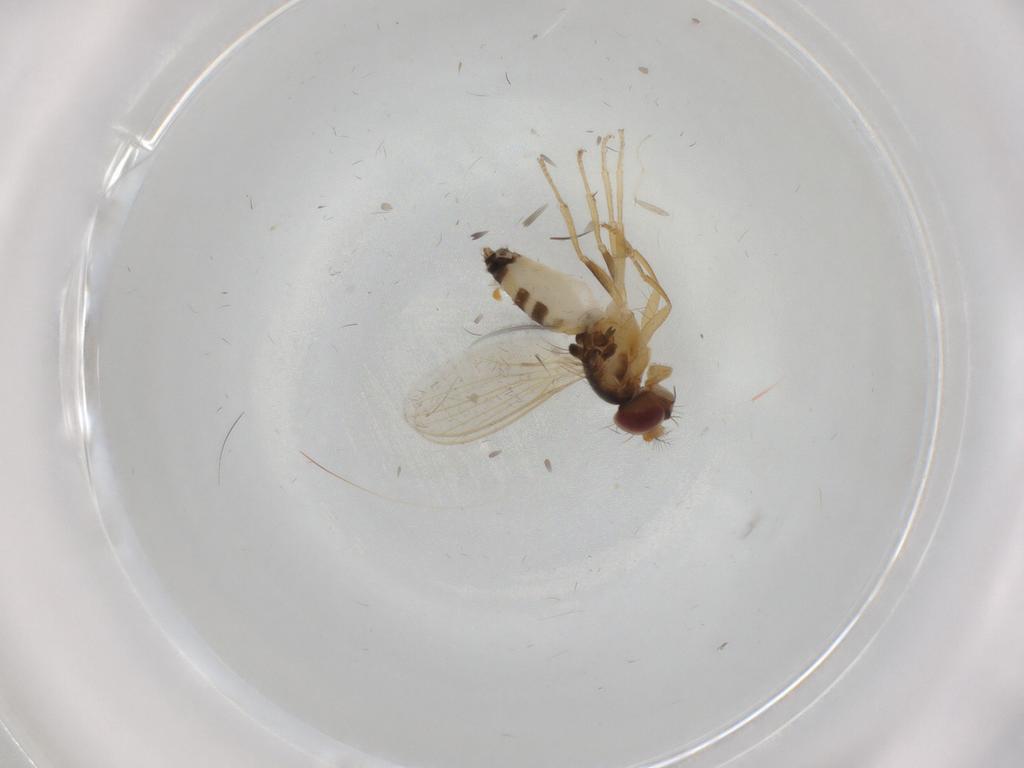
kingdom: Animalia
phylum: Arthropoda
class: Insecta
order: Diptera
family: Periscelididae
